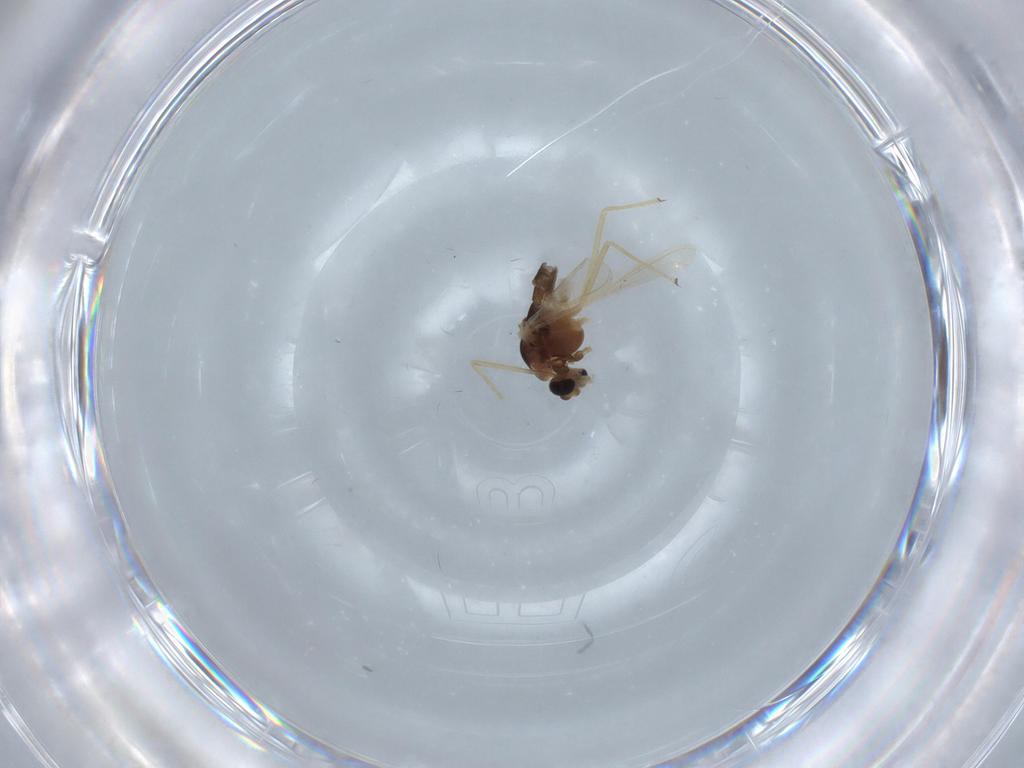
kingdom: Animalia
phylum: Arthropoda
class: Insecta
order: Diptera
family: Chironomidae
